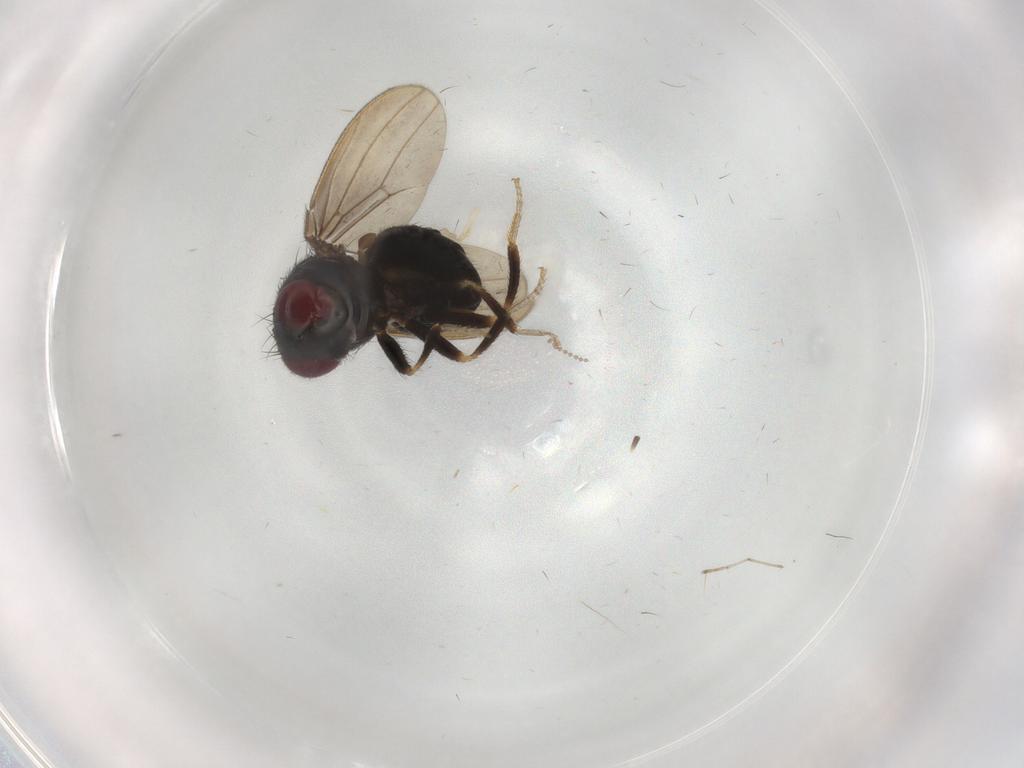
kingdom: Animalia
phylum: Arthropoda
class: Insecta
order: Diptera
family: Drosophilidae
